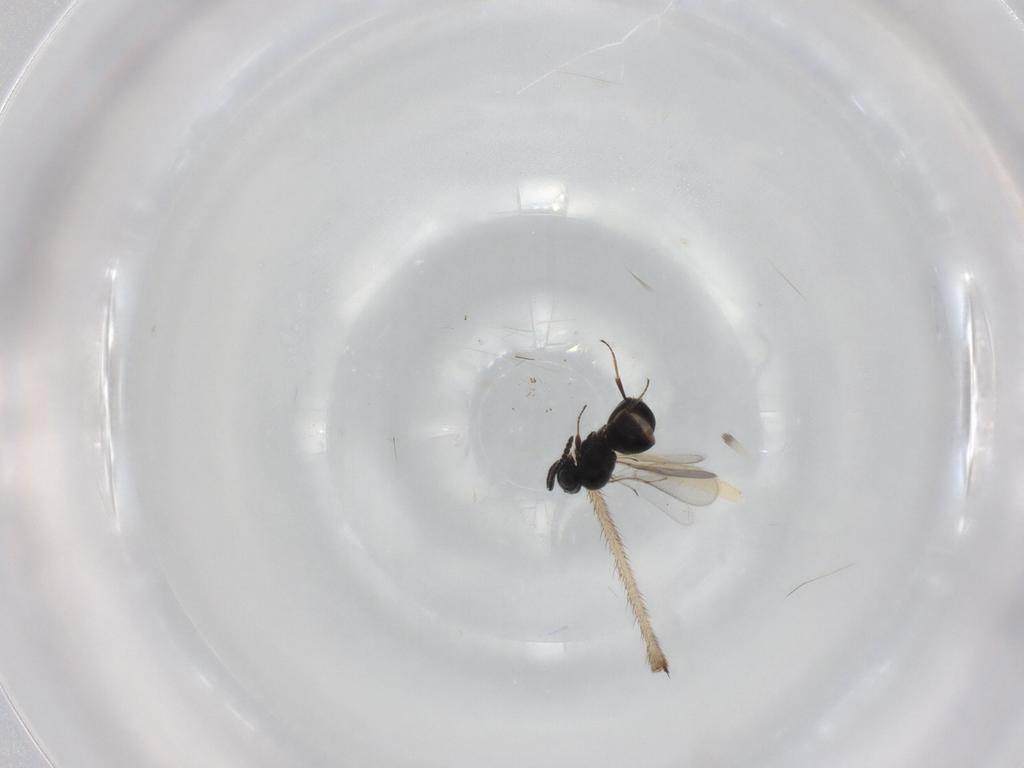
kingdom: Animalia
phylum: Arthropoda
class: Insecta
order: Hymenoptera
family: Scelionidae
